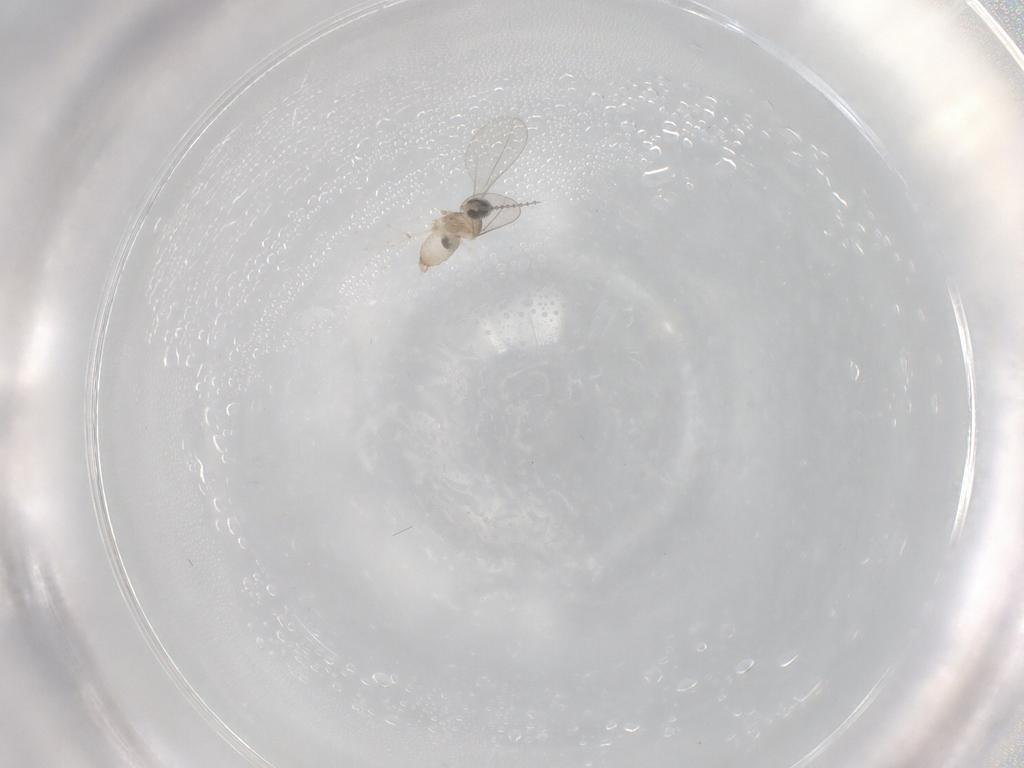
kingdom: Animalia
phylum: Arthropoda
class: Insecta
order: Diptera
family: Cecidomyiidae
